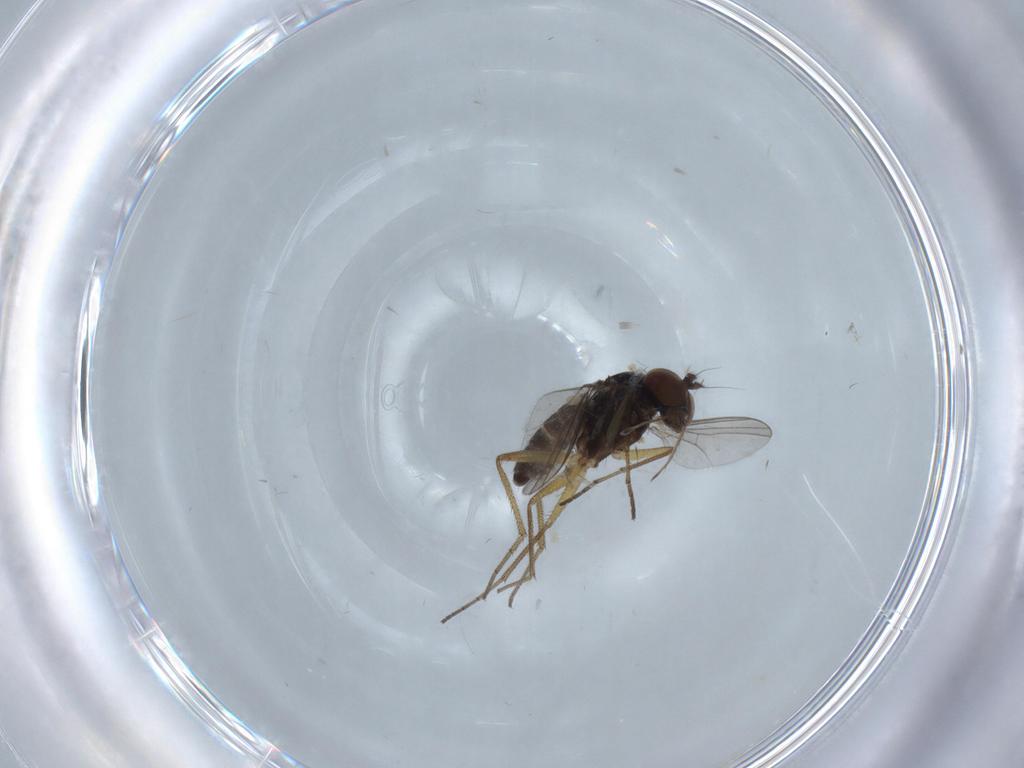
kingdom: Animalia
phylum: Arthropoda
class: Insecta
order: Diptera
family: Dolichopodidae
